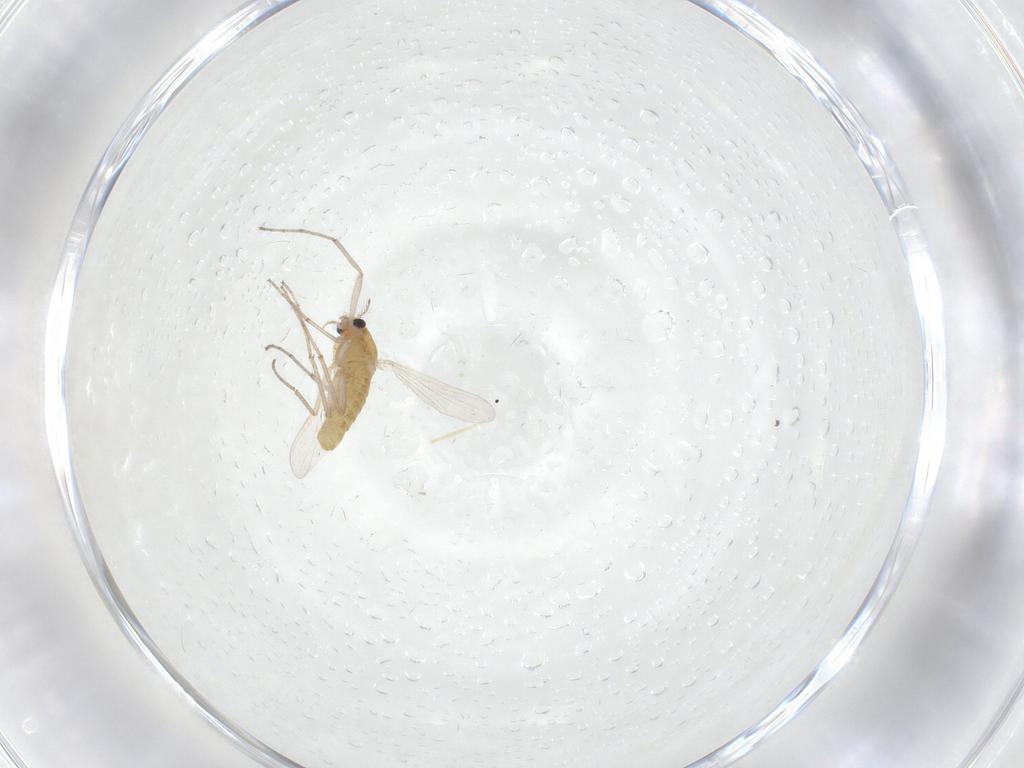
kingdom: Animalia
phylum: Arthropoda
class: Insecta
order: Diptera
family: Chironomidae
